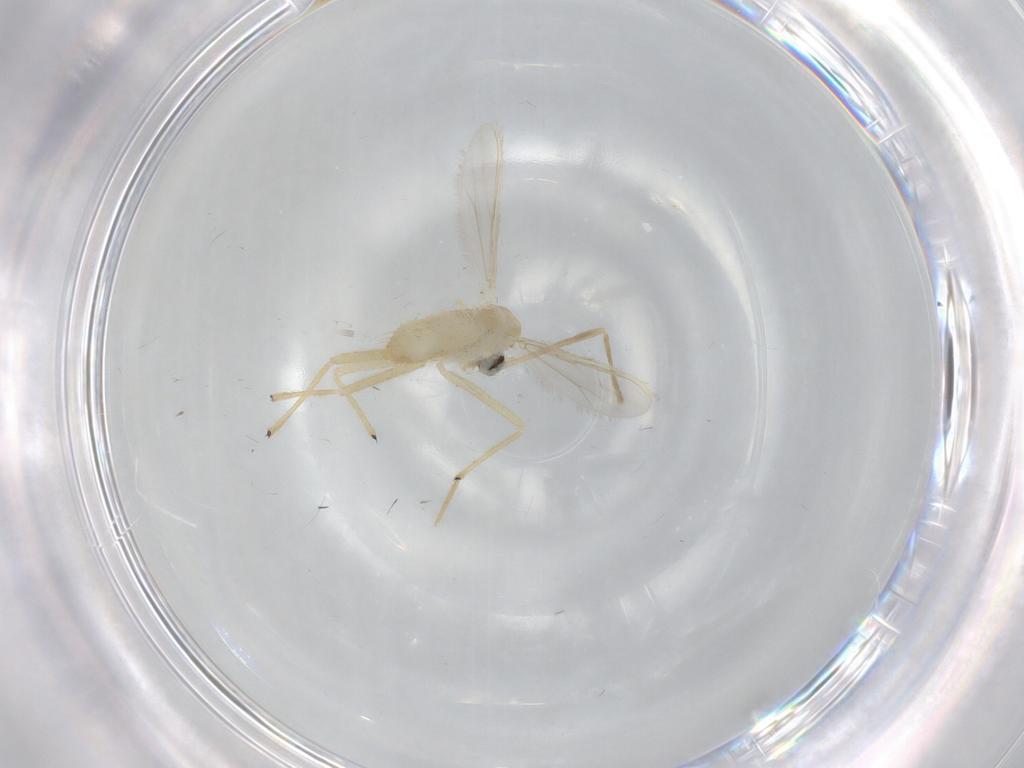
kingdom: Animalia
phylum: Arthropoda
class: Insecta
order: Diptera
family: Chironomidae
